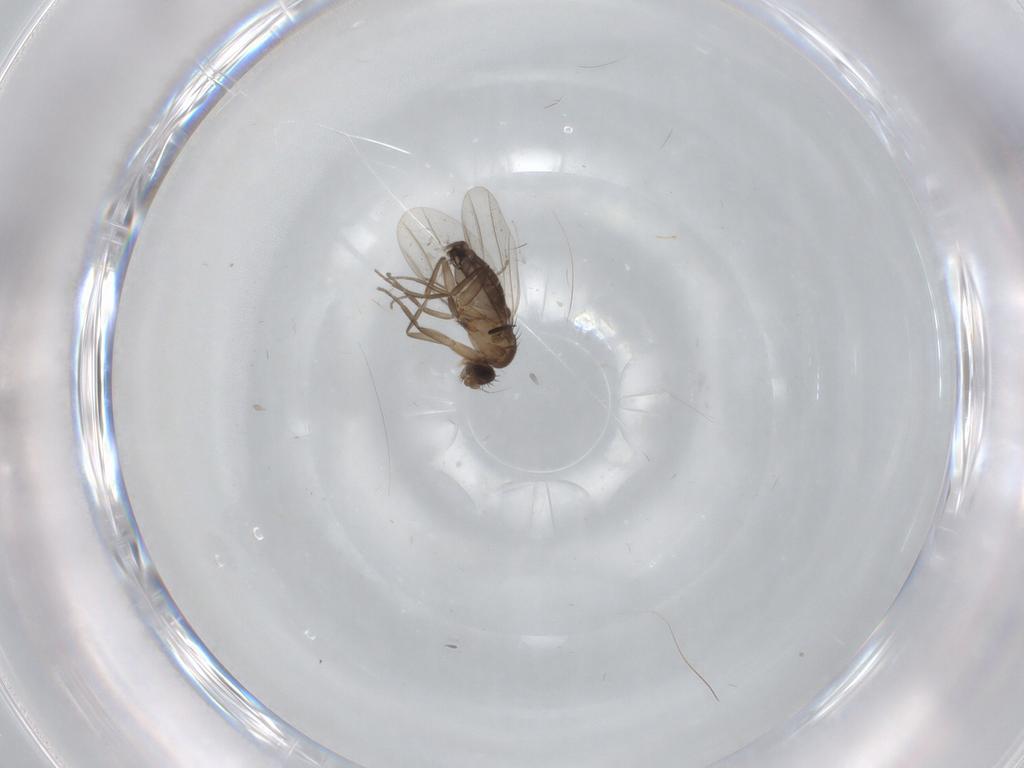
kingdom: Animalia
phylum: Arthropoda
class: Insecta
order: Diptera
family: Phoridae
